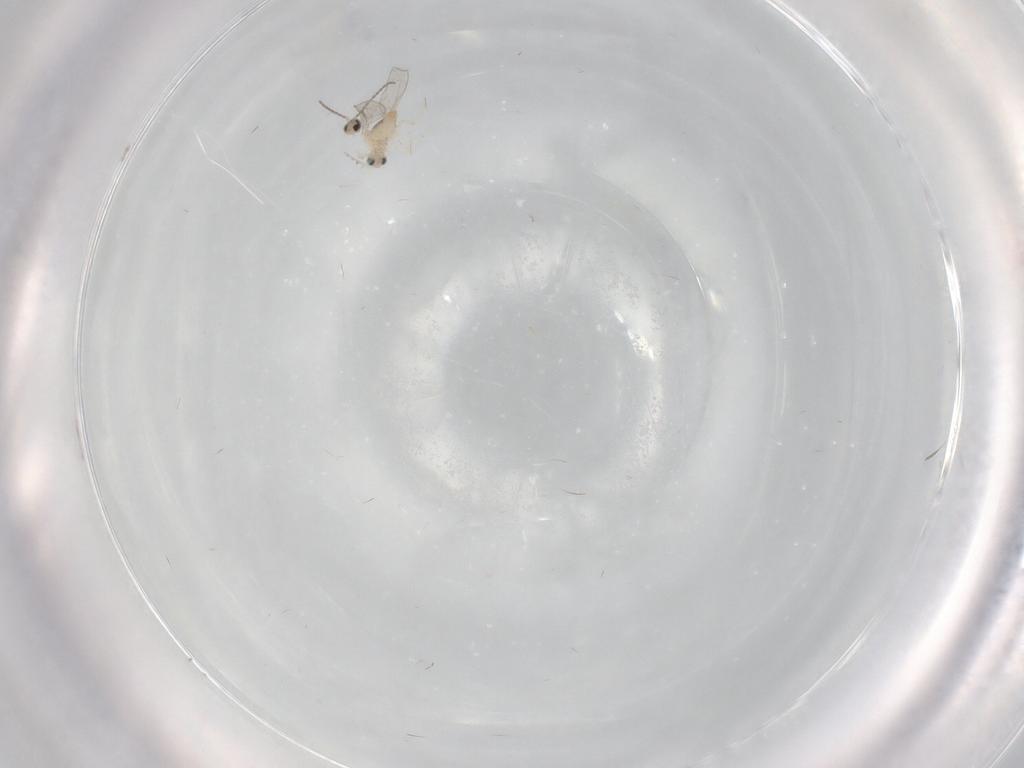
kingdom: Animalia
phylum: Arthropoda
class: Insecta
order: Diptera
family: Cecidomyiidae
